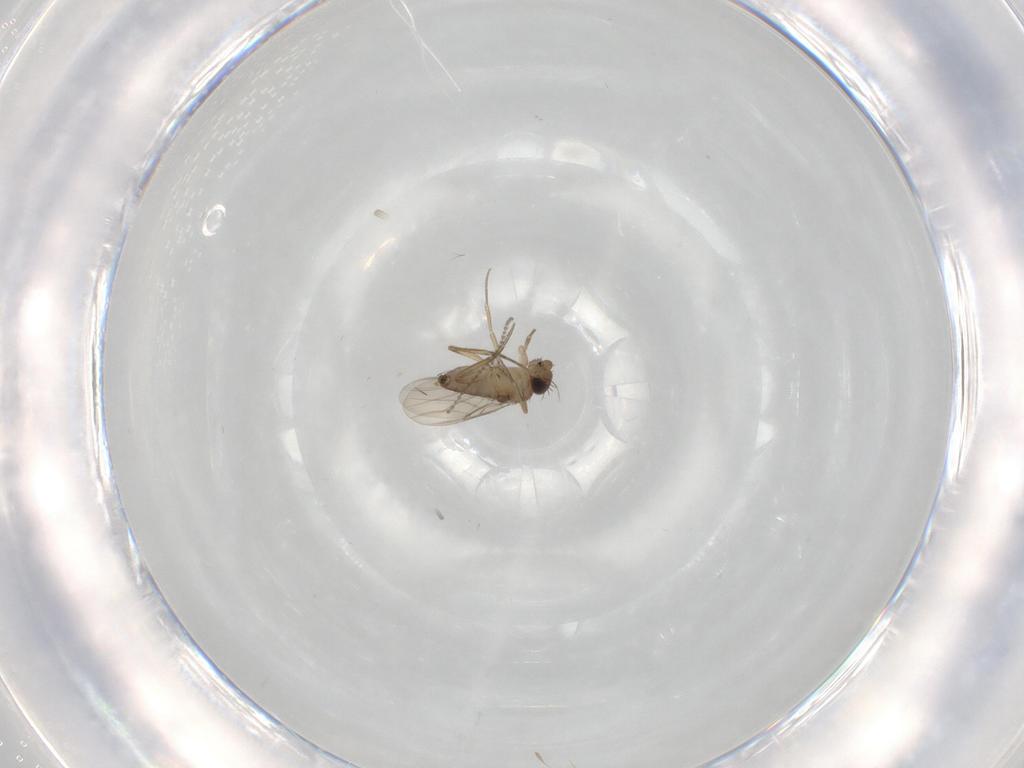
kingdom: Animalia
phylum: Arthropoda
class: Insecta
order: Diptera
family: Phoridae
